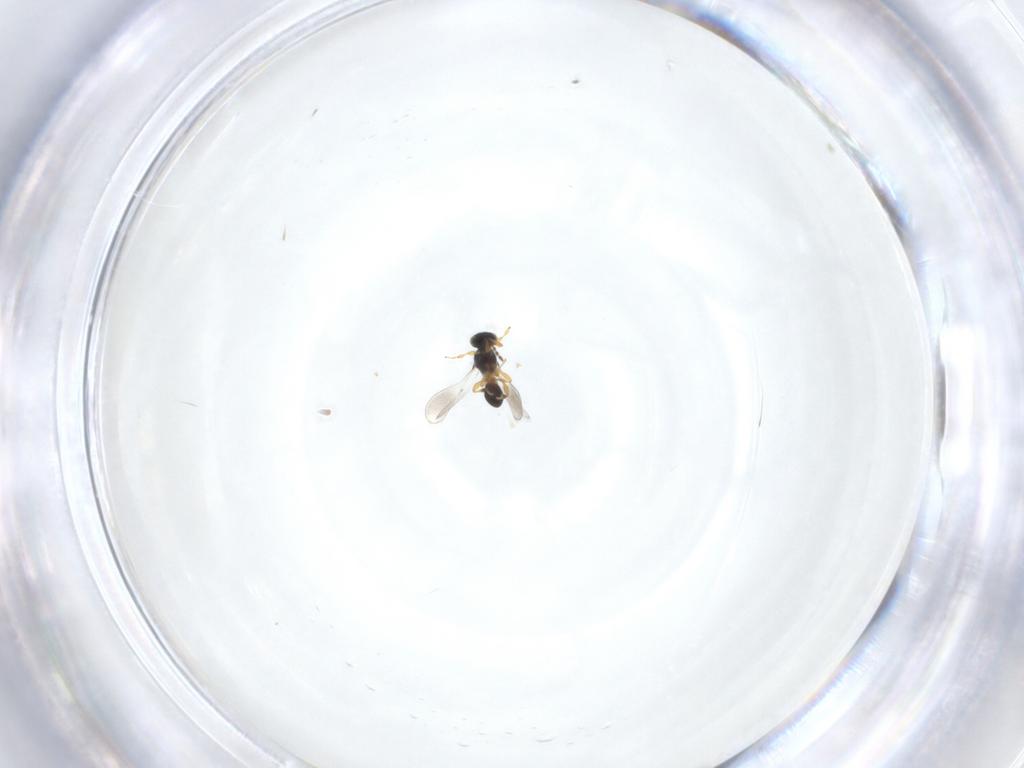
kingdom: Animalia
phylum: Arthropoda
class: Insecta
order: Hymenoptera
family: Platygastridae
